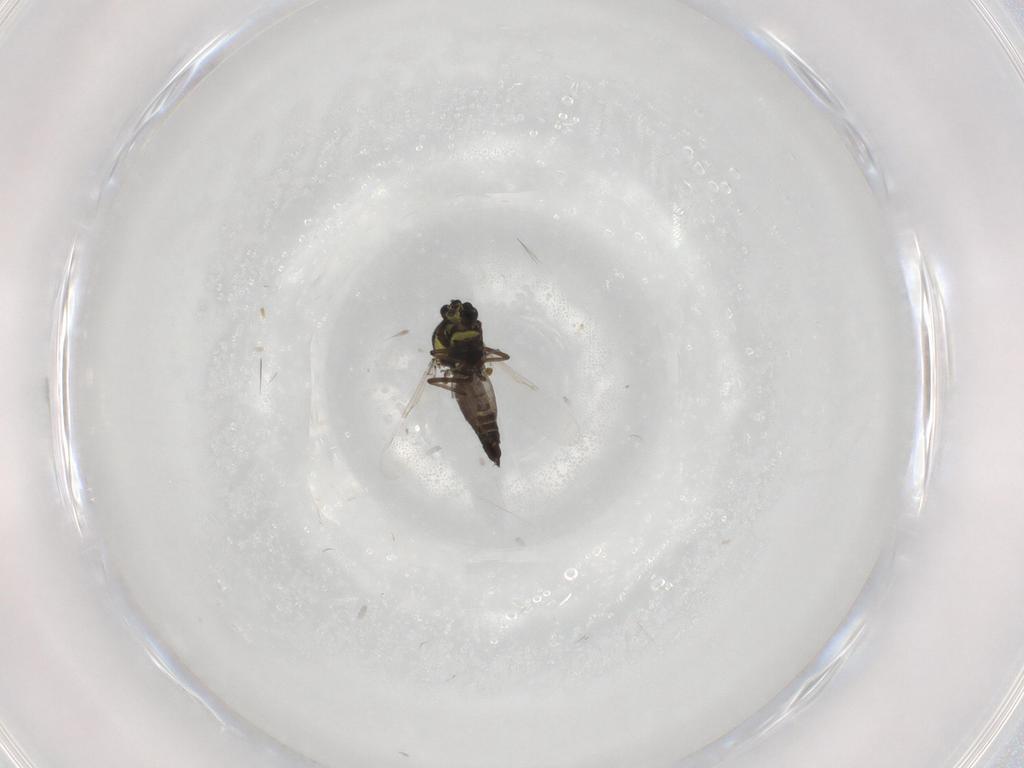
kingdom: Animalia
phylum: Arthropoda
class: Insecta
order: Diptera
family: Ceratopogonidae
